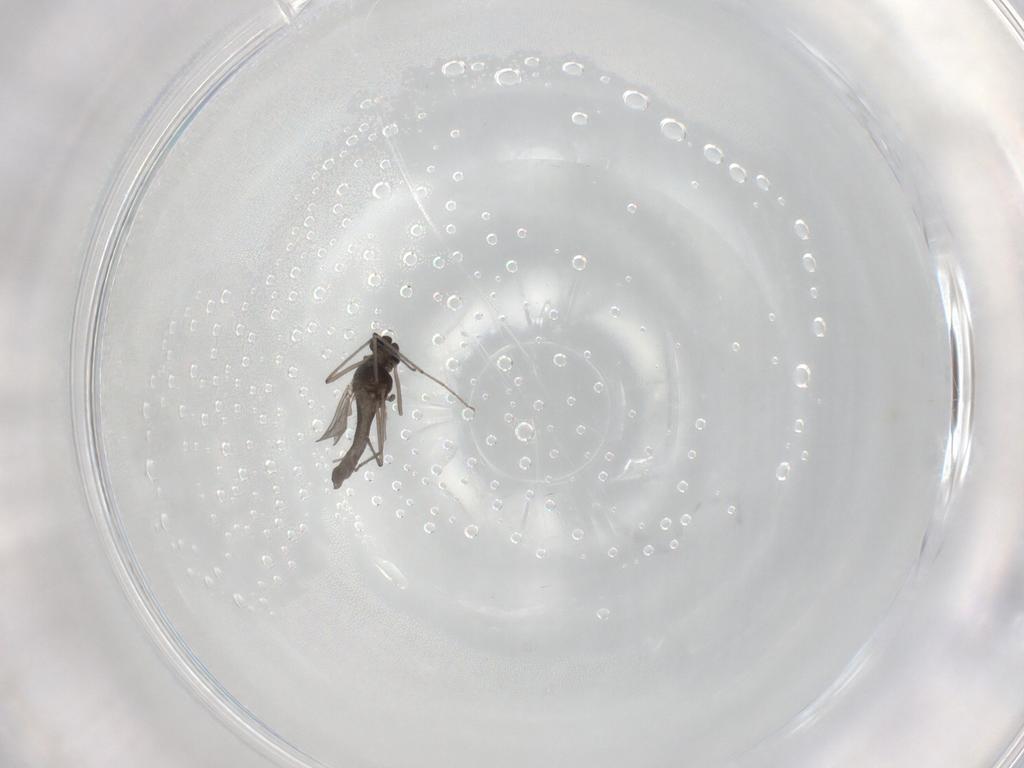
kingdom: Animalia
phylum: Arthropoda
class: Insecta
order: Diptera
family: Chironomidae
